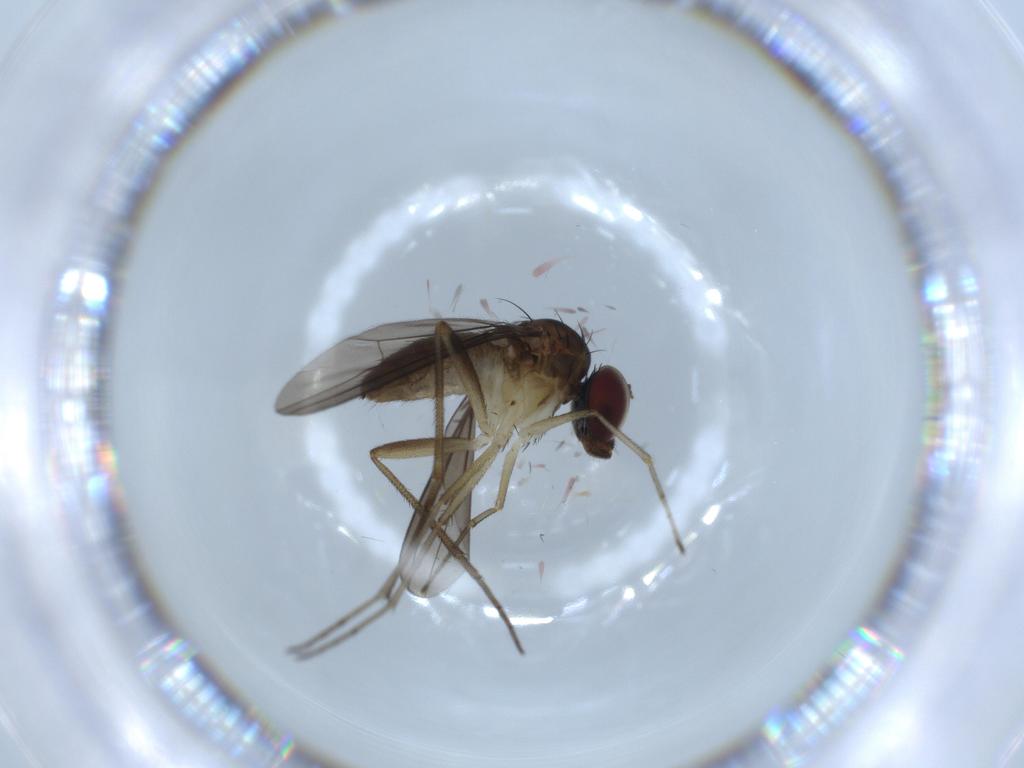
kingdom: Animalia
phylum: Arthropoda
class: Insecta
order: Diptera
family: Dolichopodidae
